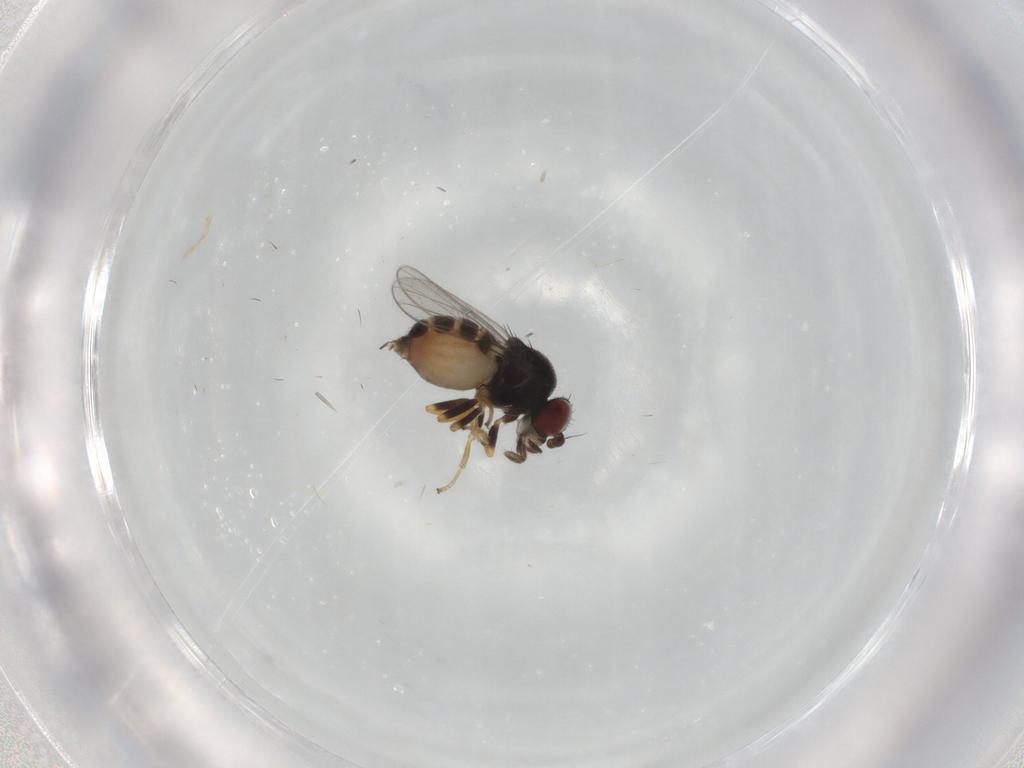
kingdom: Animalia
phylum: Arthropoda
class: Insecta
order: Diptera
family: Chloropidae
